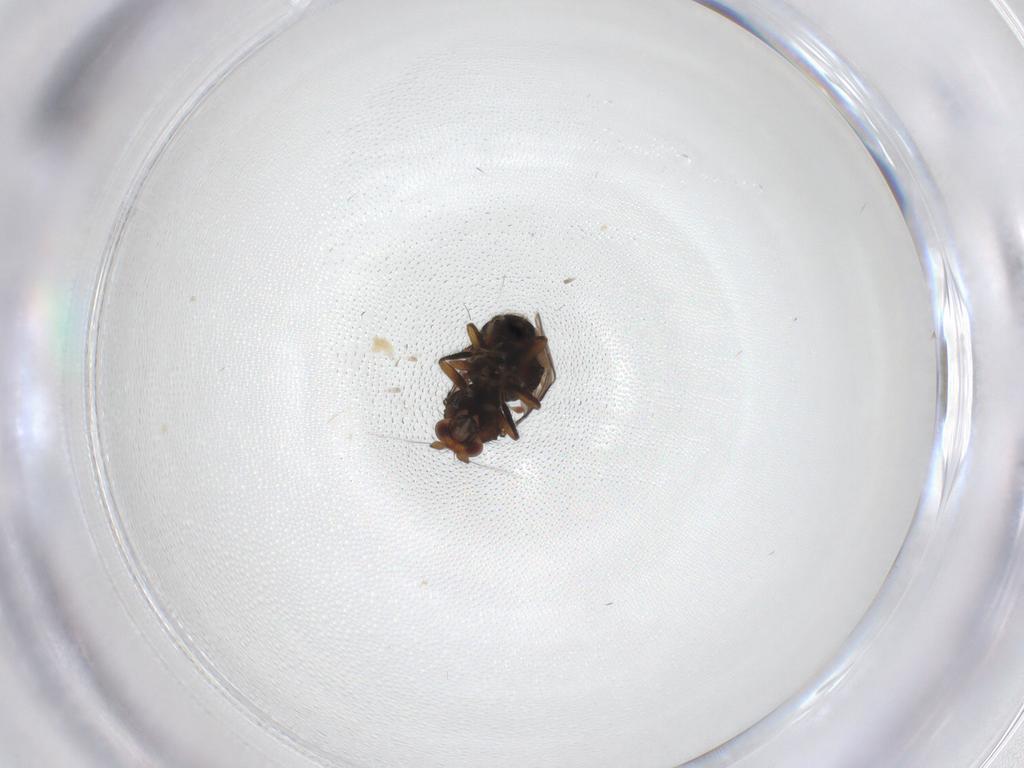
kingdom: Animalia
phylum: Arthropoda
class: Insecta
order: Diptera
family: Sphaeroceridae
